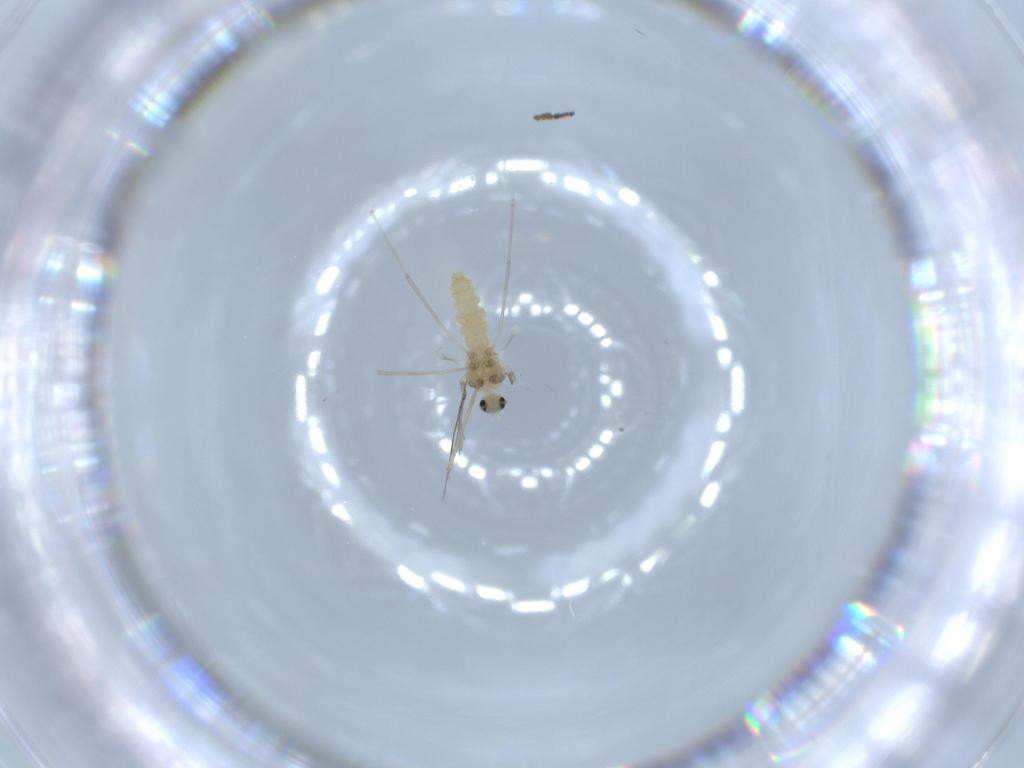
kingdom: Animalia
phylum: Arthropoda
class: Insecta
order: Diptera
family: Cecidomyiidae
